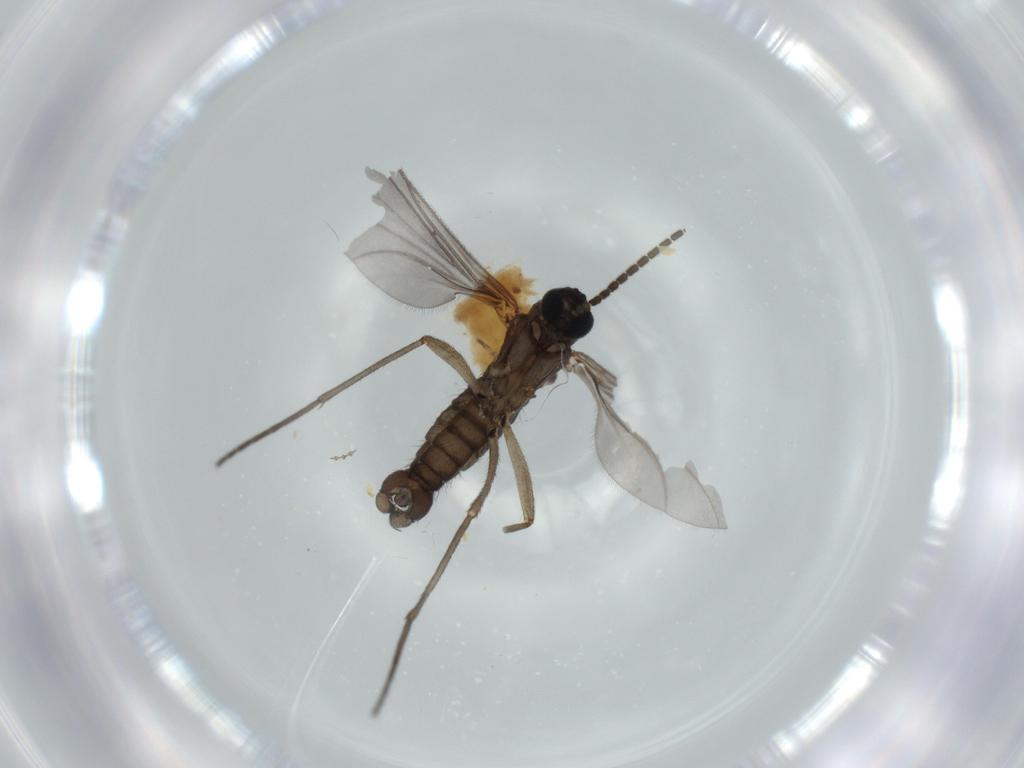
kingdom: Animalia
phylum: Arthropoda
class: Insecta
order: Diptera
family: Sciaridae
